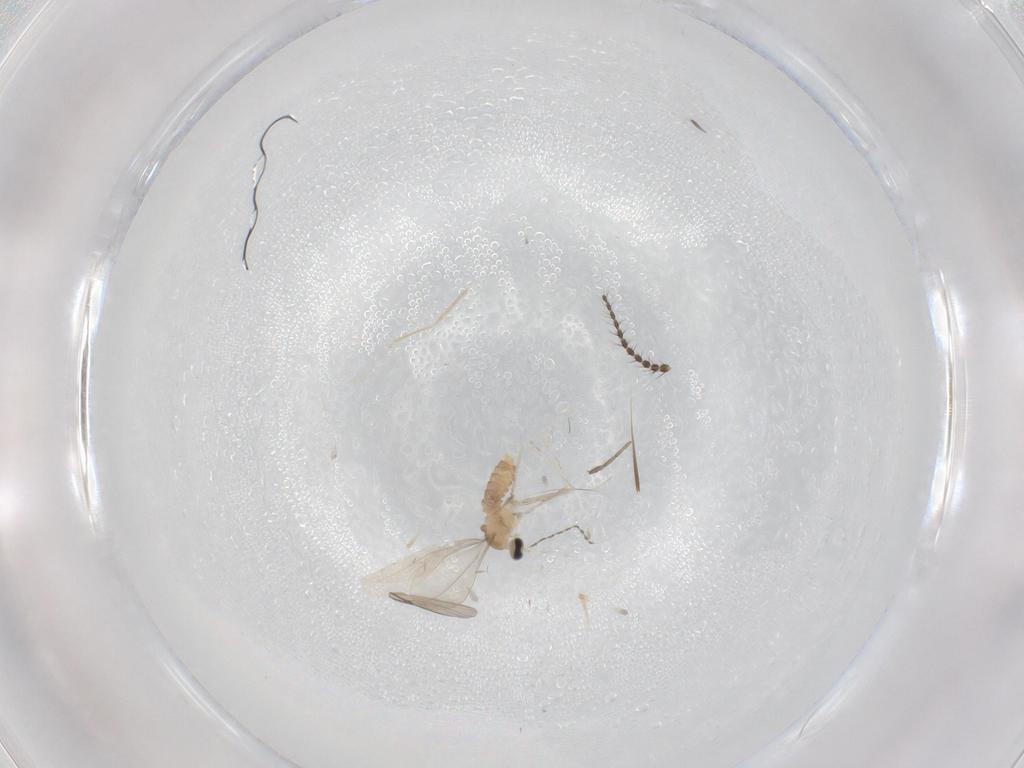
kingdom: Animalia
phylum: Arthropoda
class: Insecta
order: Diptera
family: Cecidomyiidae
